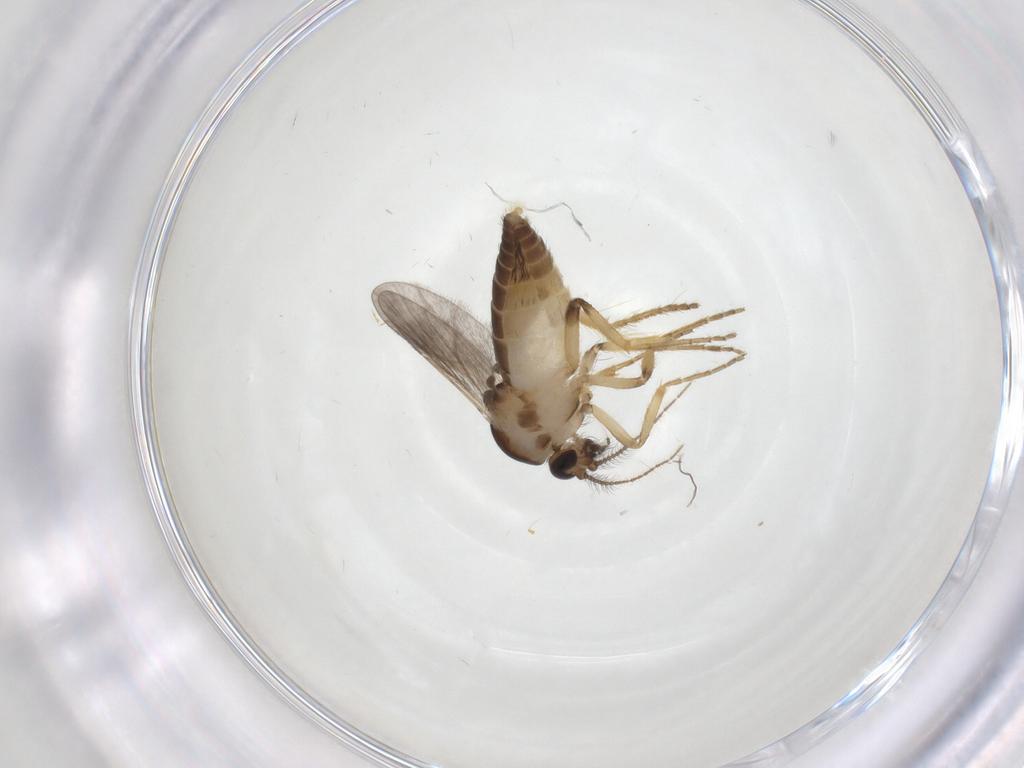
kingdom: Animalia
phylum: Arthropoda
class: Insecta
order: Diptera
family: Ceratopogonidae
